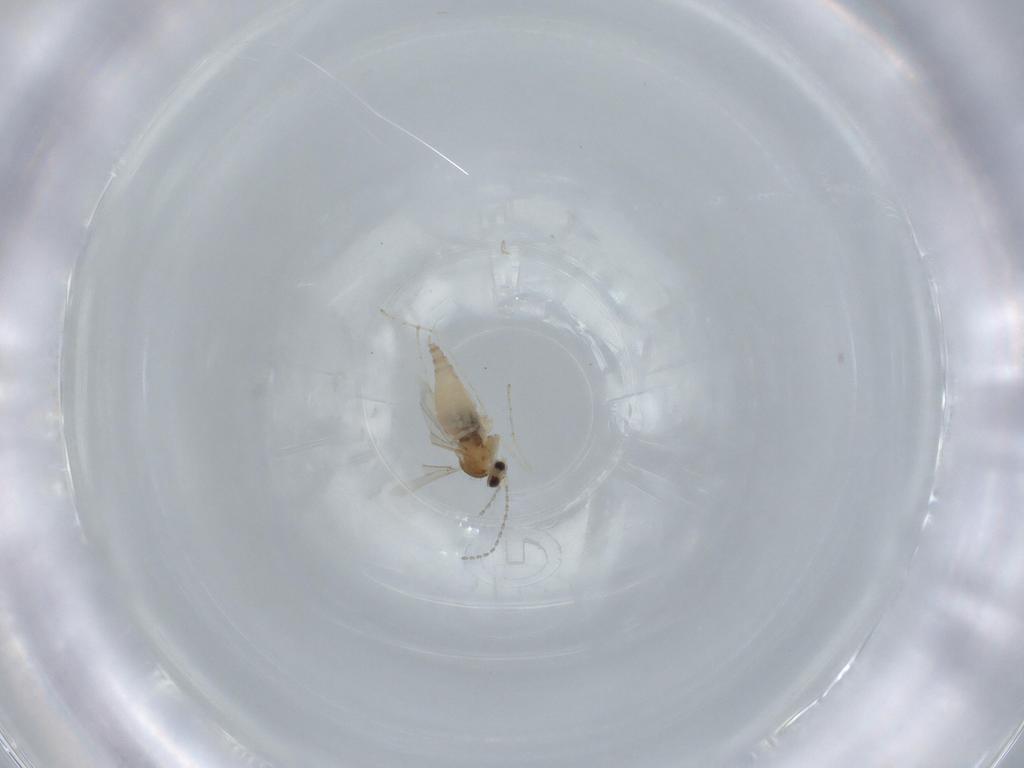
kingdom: Animalia
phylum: Arthropoda
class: Insecta
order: Diptera
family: Cecidomyiidae
